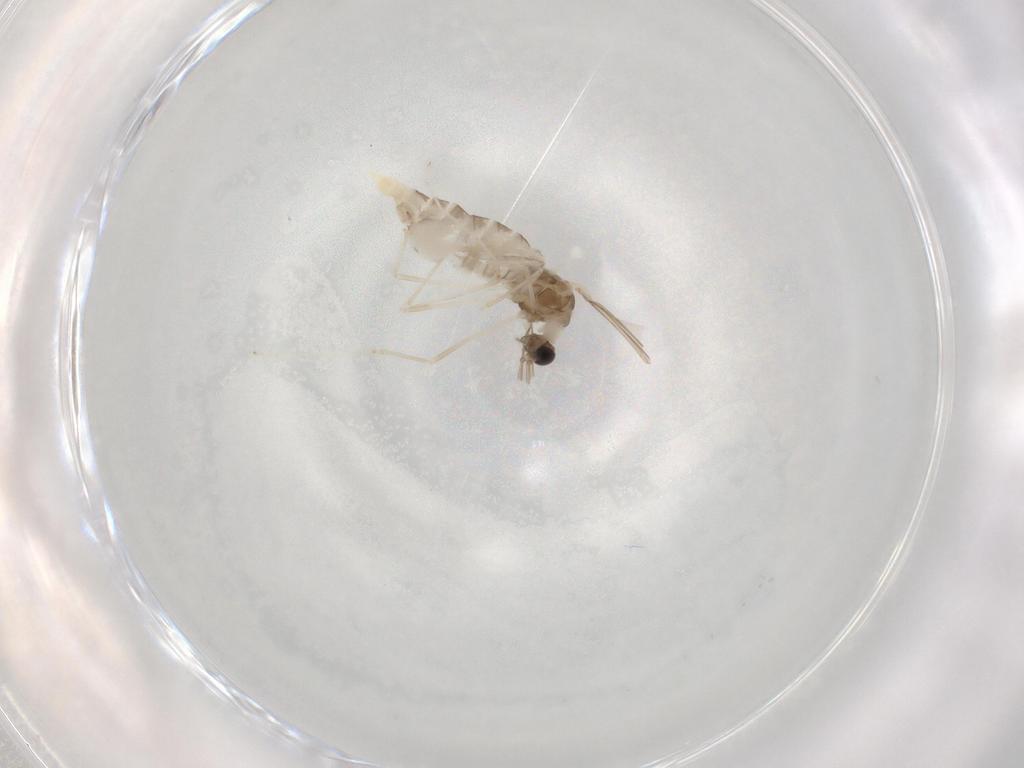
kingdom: Animalia
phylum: Arthropoda
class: Insecta
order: Diptera
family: Cecidomyiidae
